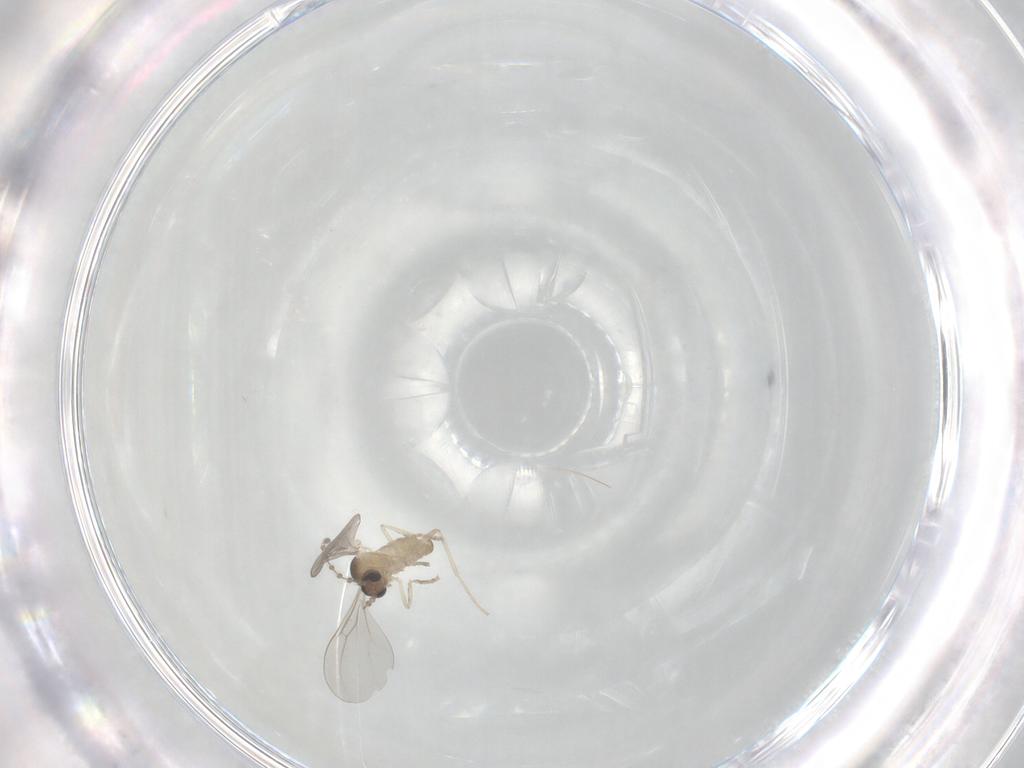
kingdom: Animalia
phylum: Arthropoda
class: Insecta
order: Diptera
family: Cecidomyiidae
